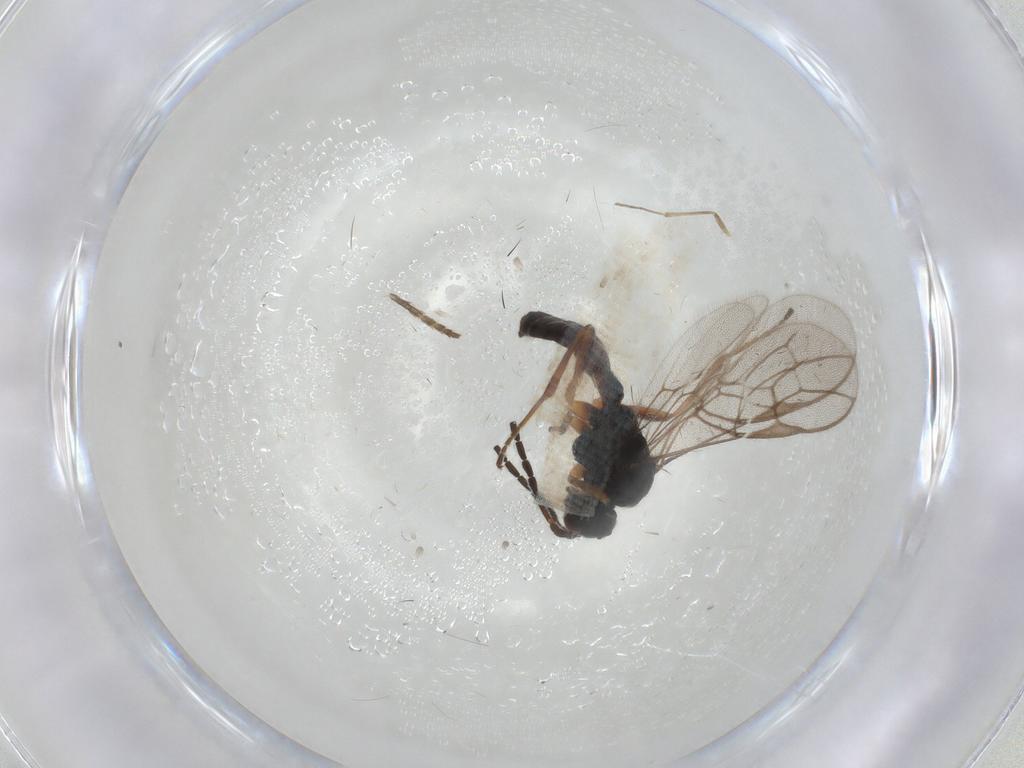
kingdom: Animalia
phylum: Arthropoda
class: Insecta
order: Hymenoptera
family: Braconidae
